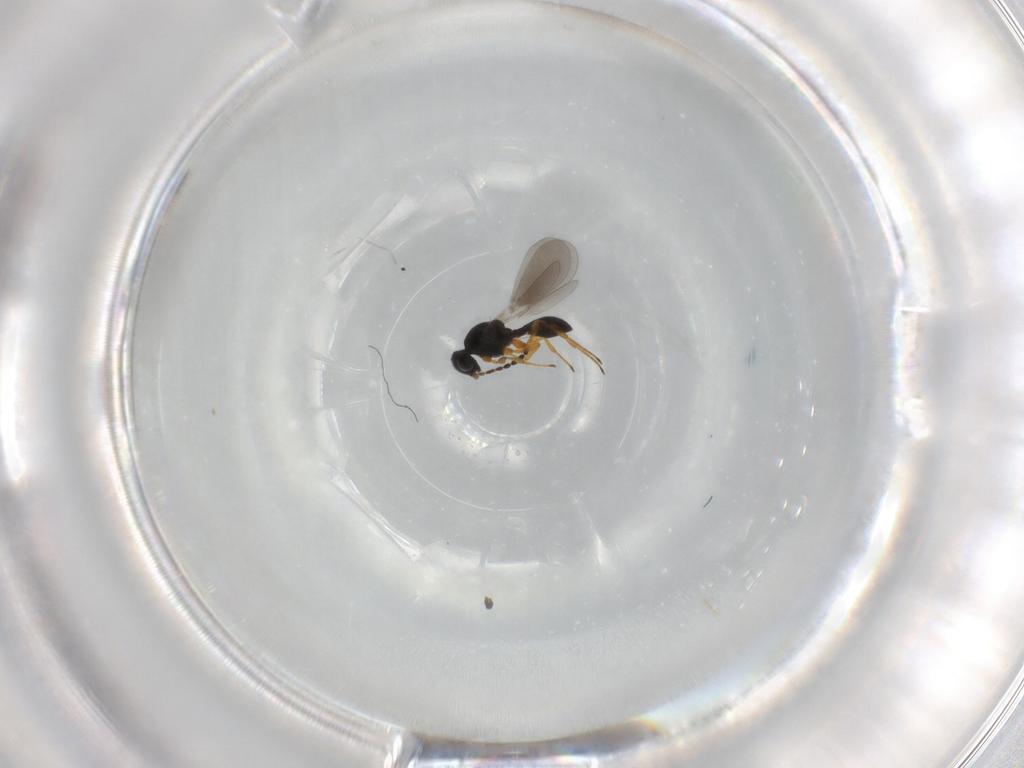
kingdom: Animalia
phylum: Arthropoda
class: Insecta
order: Hymenoptera
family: Platygastridae
